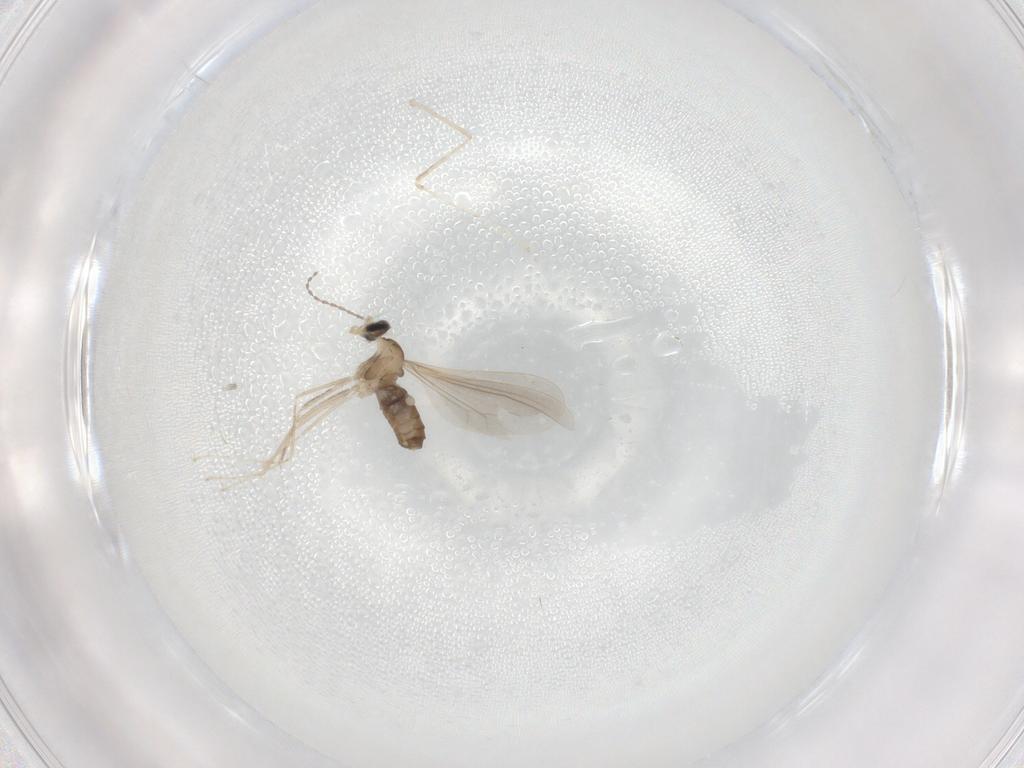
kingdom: Animalia
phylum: Arthropoda
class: Insecta
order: Diptera
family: Cecidomyiidae
